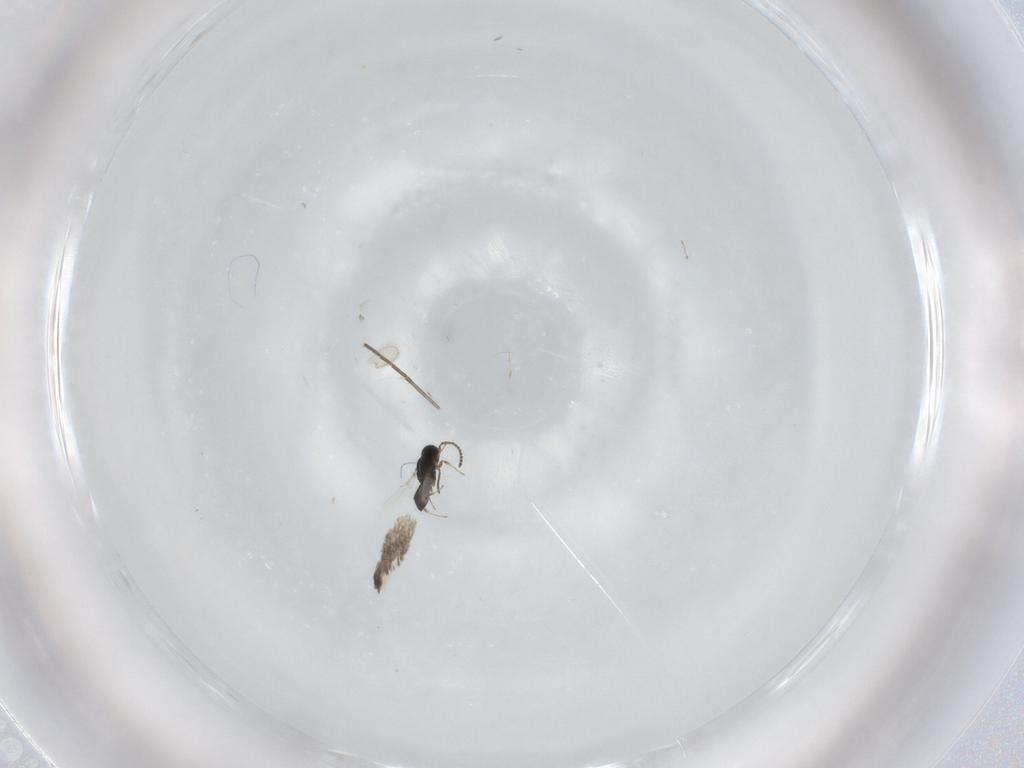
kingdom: Animalia
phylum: Arthropoda
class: Insecta
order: Hymenoptera
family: Scelionidae
